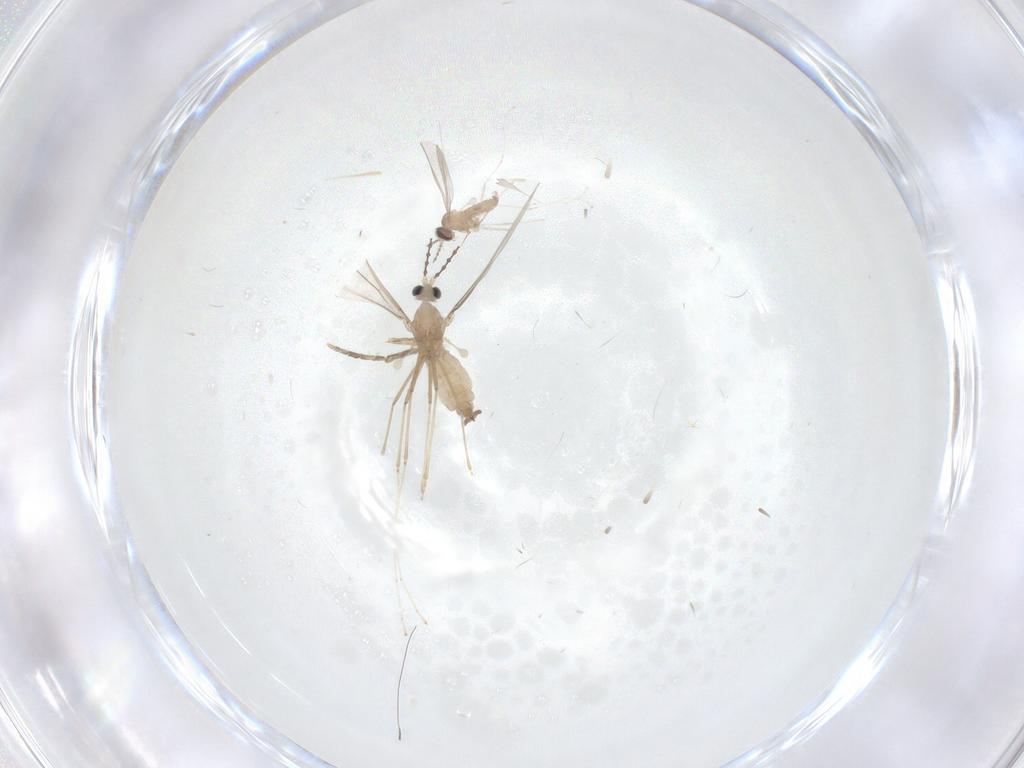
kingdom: Animalia
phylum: Arthropoda
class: Insecta
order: Diptera
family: Cecidomyiidae
